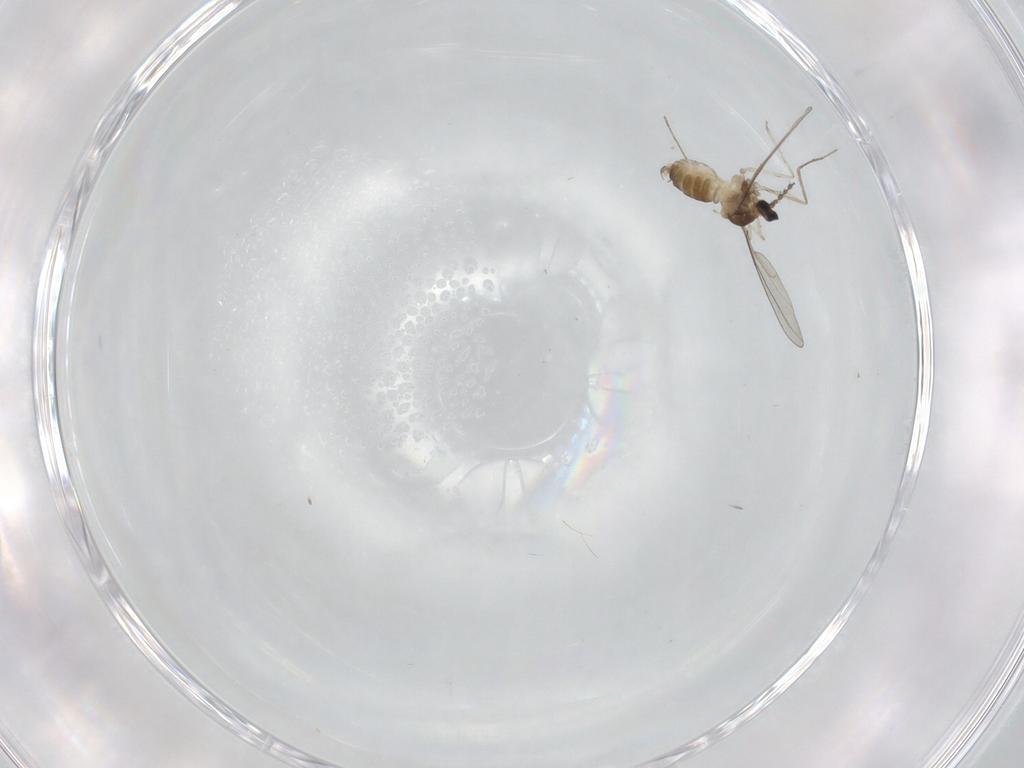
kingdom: Animalia
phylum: Arthropoda
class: Insecta
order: Diptera
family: Cecidomyiidae
